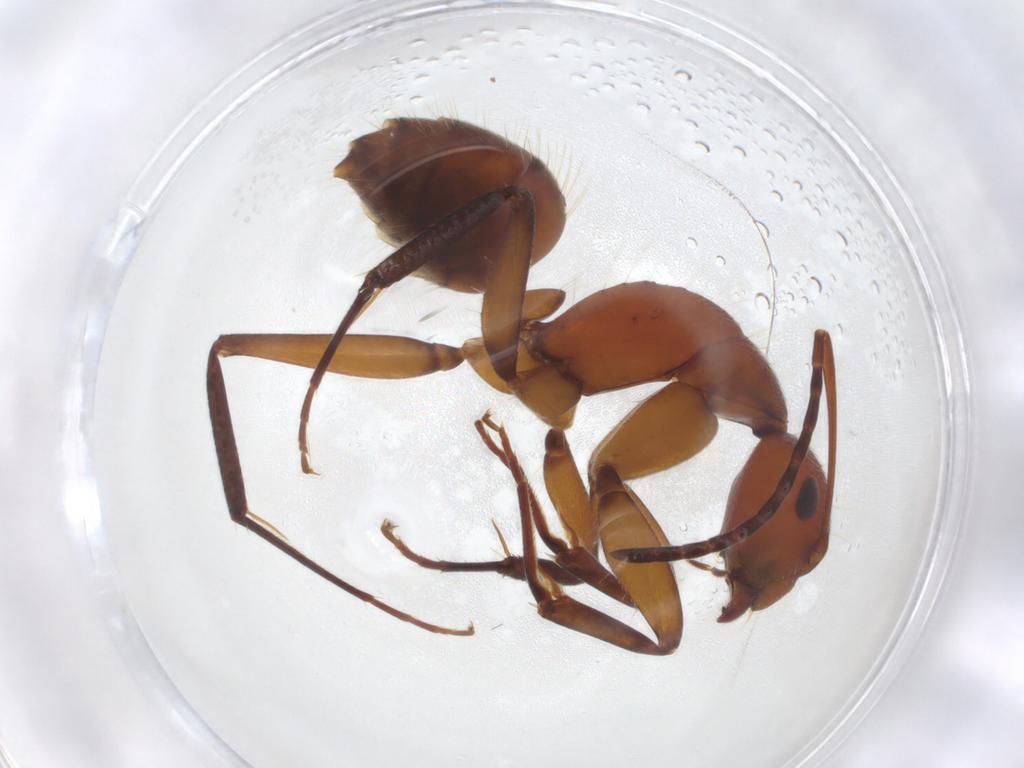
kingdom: Animalia
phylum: Arthropoda
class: Insecta
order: Hymenoptera
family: Formicidae
